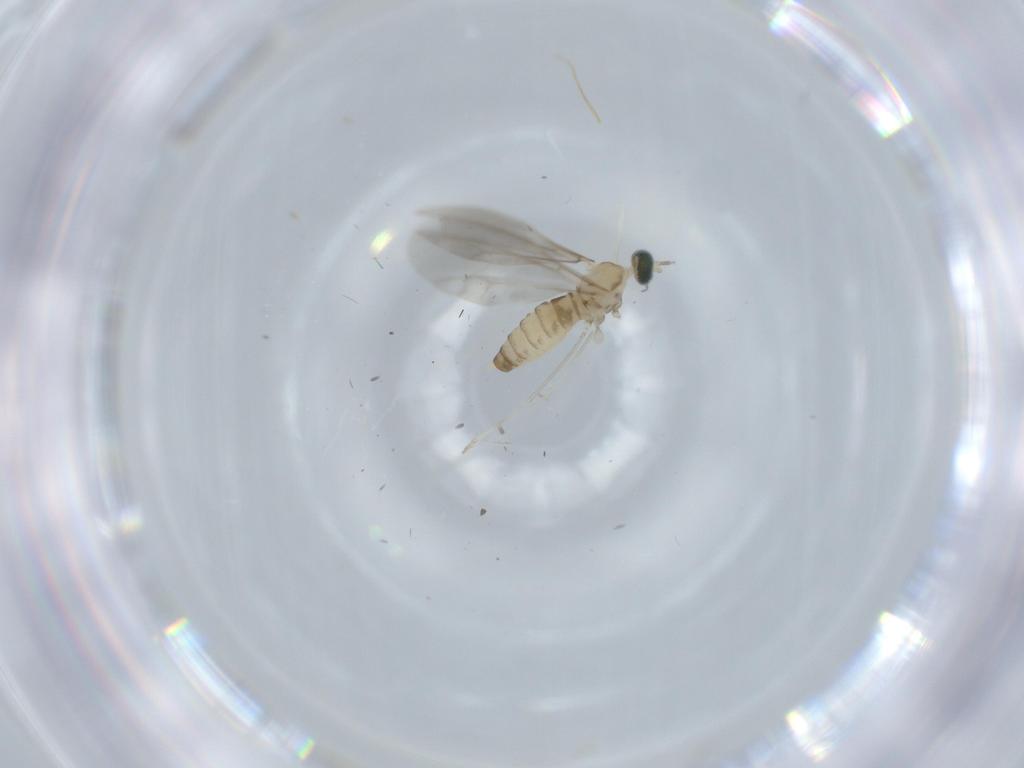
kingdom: Animalia
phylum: Arthropoda
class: Insecta
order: Diptera
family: Cecidomyiidae
